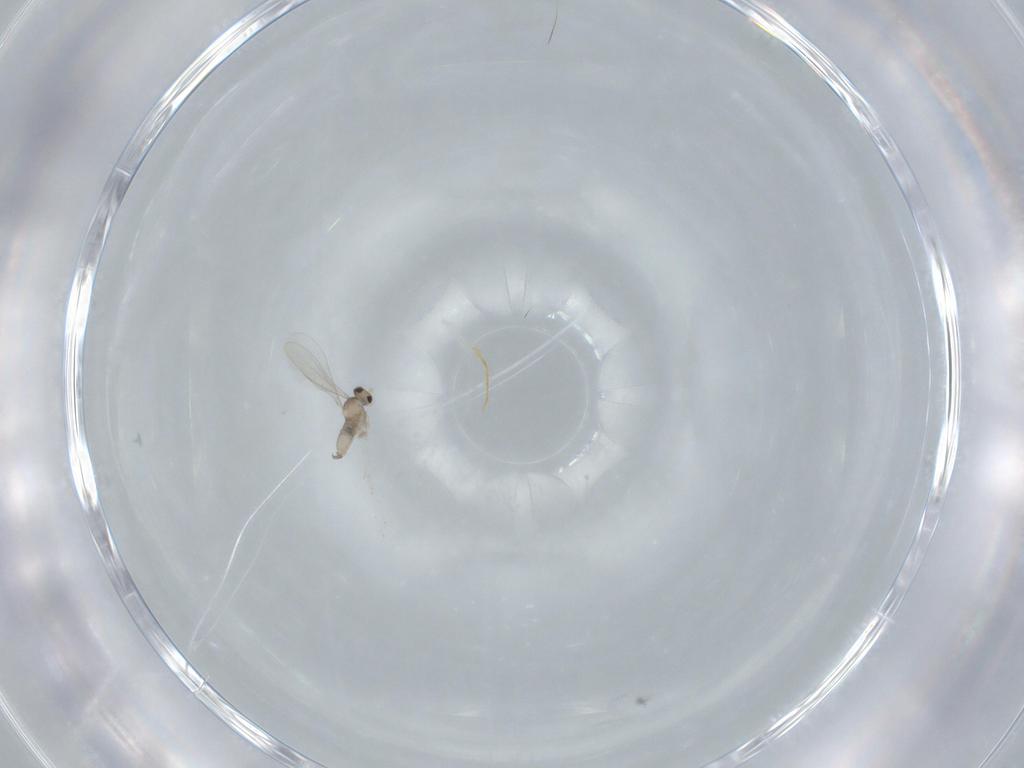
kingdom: Animalia
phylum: Arthropoda
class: Insecta
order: Diptera
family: Cecidomyiidae
